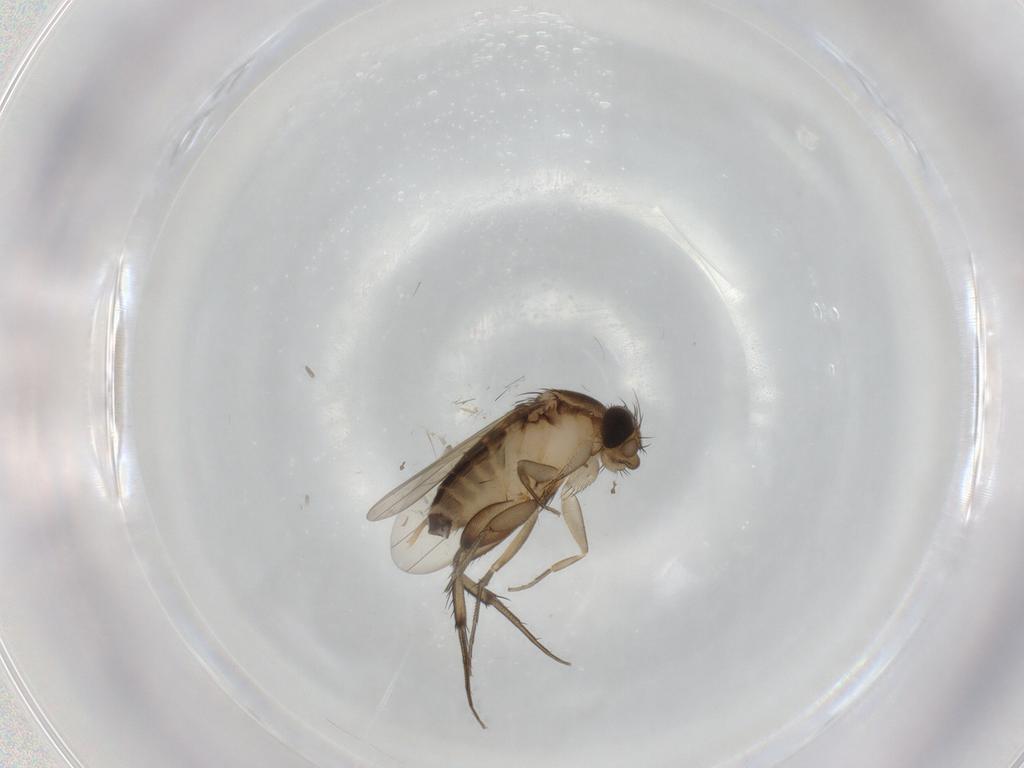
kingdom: Animalia
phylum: Arthropoda
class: Insecta
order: Diptera
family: Phoridae
